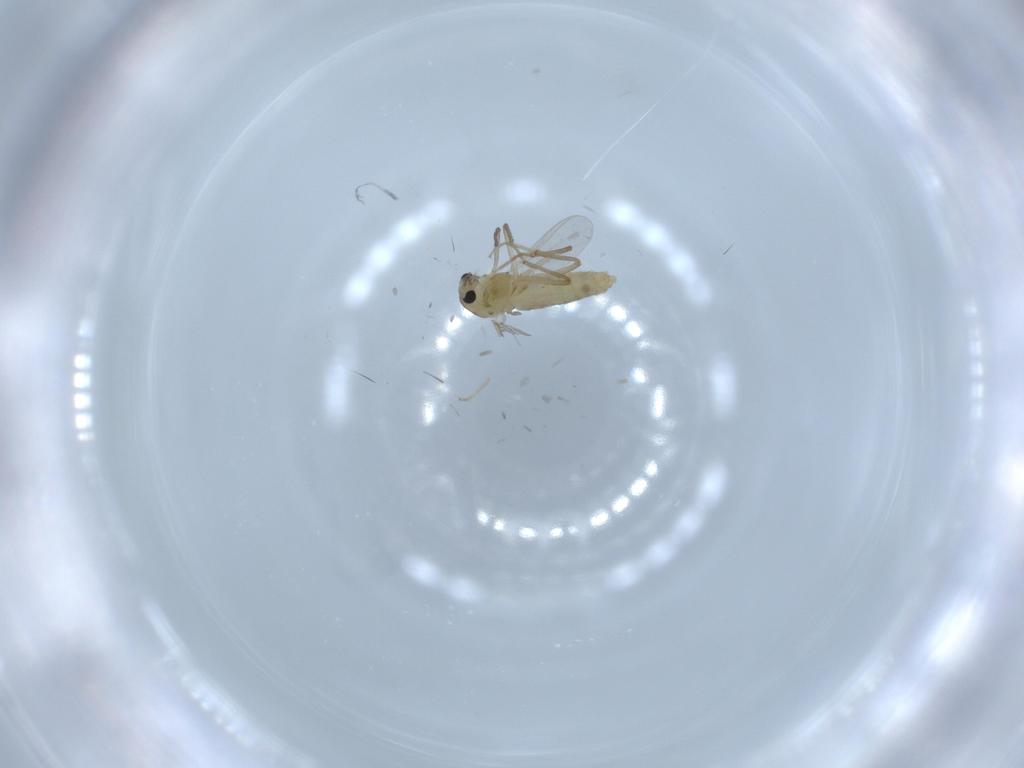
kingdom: Animalia
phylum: Arthropoda
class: Insecta
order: Diptera
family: Chironomidae
